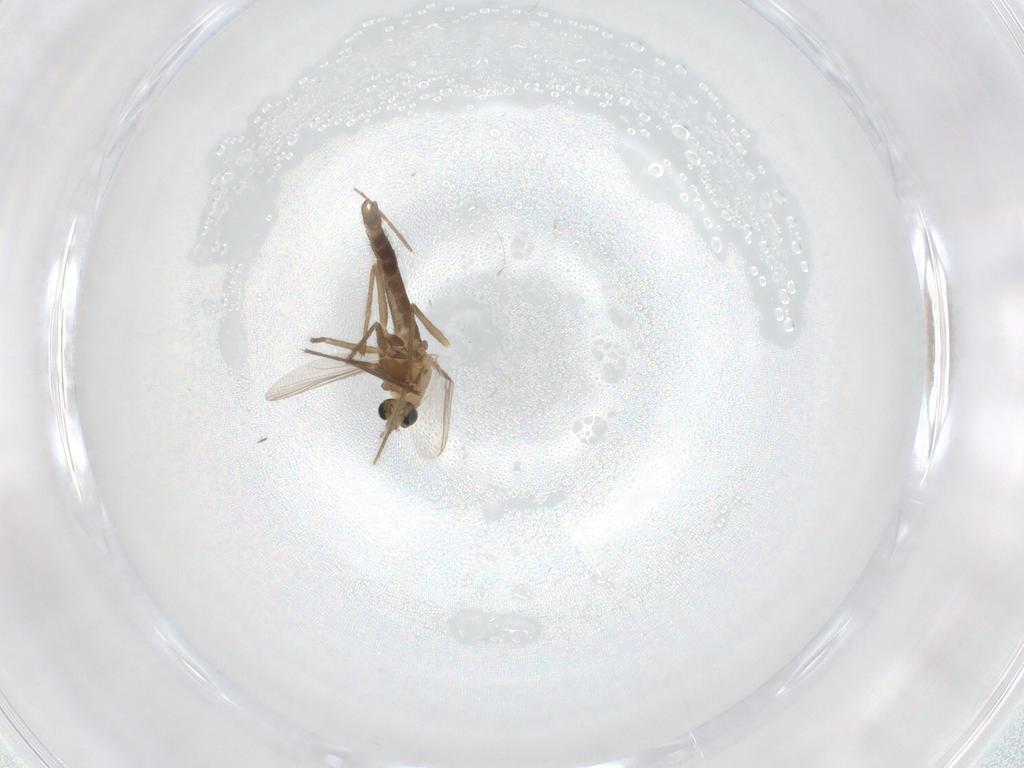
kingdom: Animalia
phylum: Arthropoda
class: Insecta
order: Diptera
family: Chironomidae
